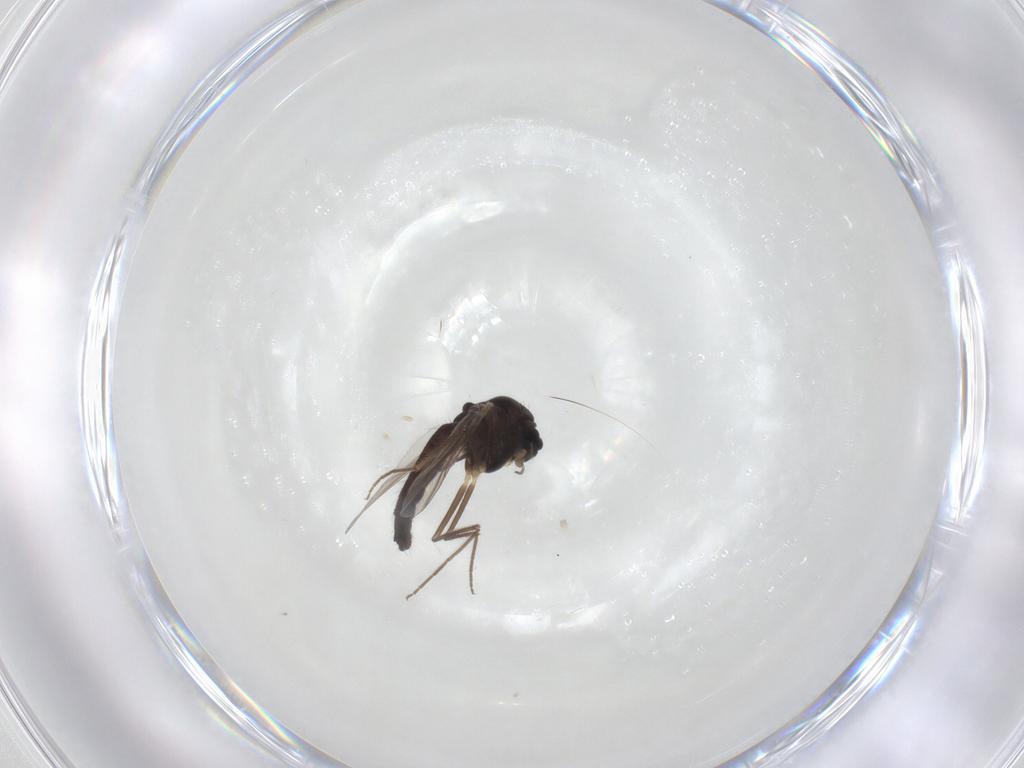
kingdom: Animalia
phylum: Arthropoda
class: Insecta
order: Diptera
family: Chironomidae
